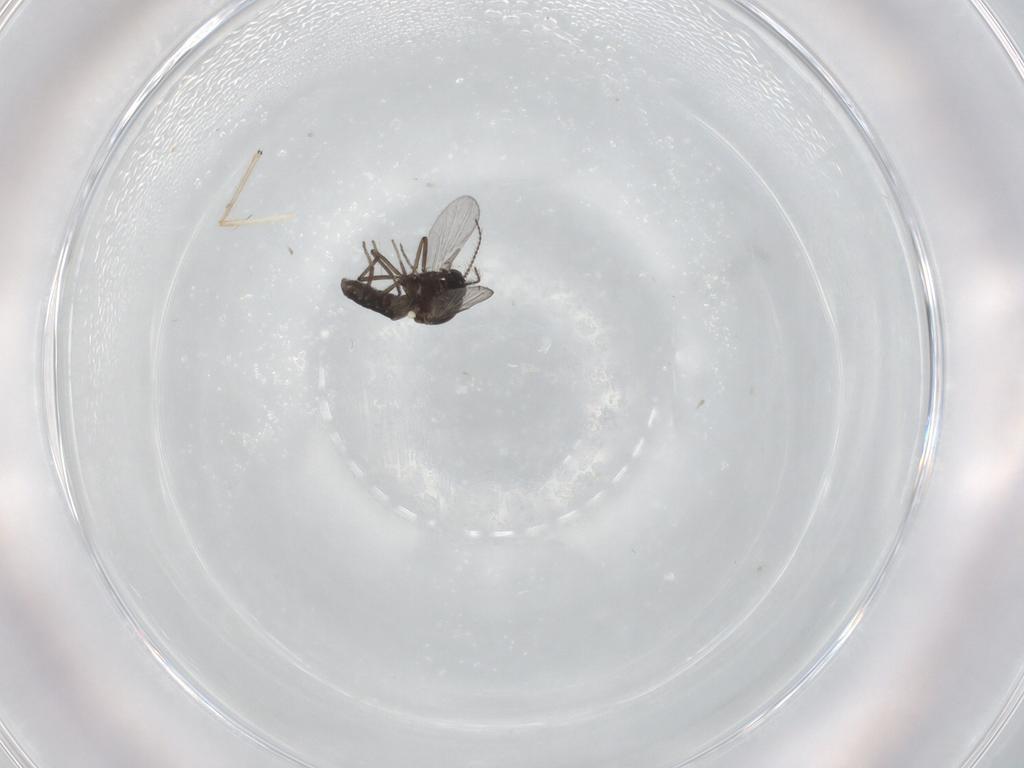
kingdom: Animalia
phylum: Arthropoda
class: Insecta
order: Diptera
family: Ceratopogonidae
